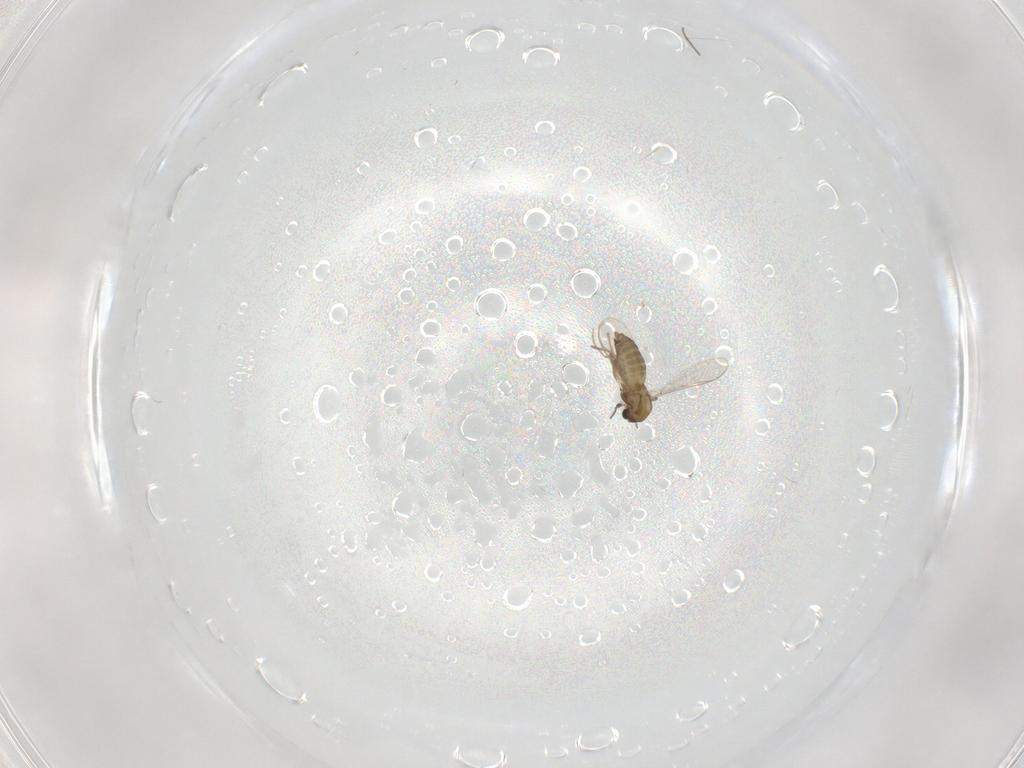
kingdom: Animalia
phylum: Arthropoda
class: Insecta
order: Diptera
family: Chironomidae
